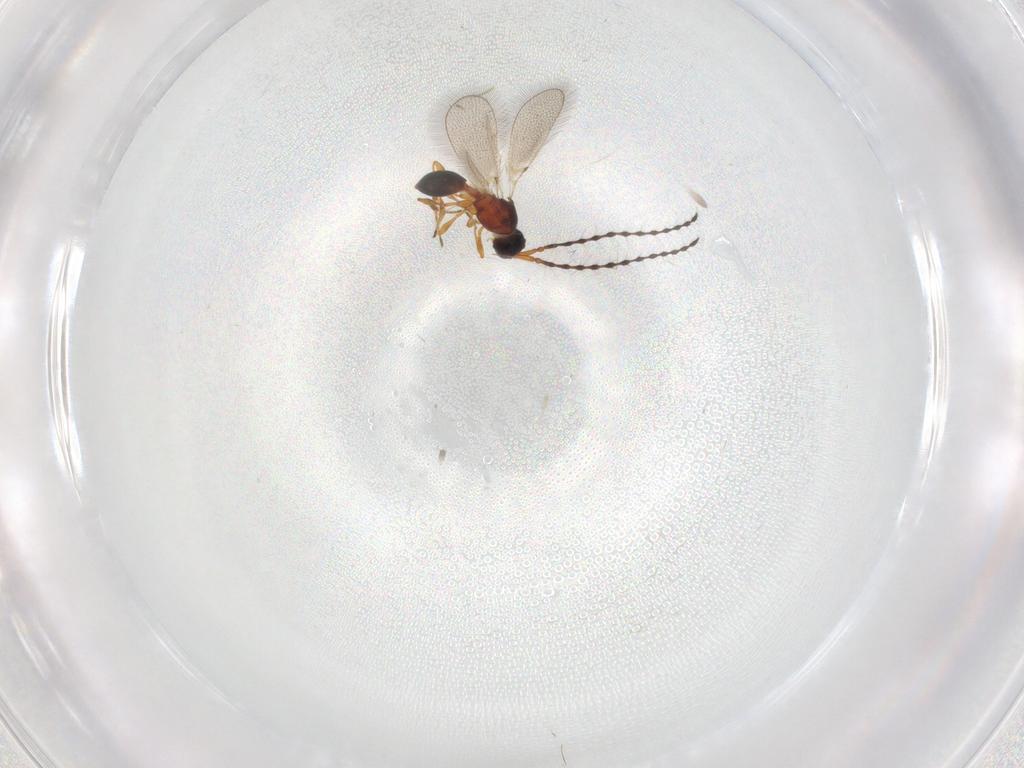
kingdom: Animalia
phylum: Arthropoda
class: Insecta
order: Hymenoptera
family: Diapriidae
